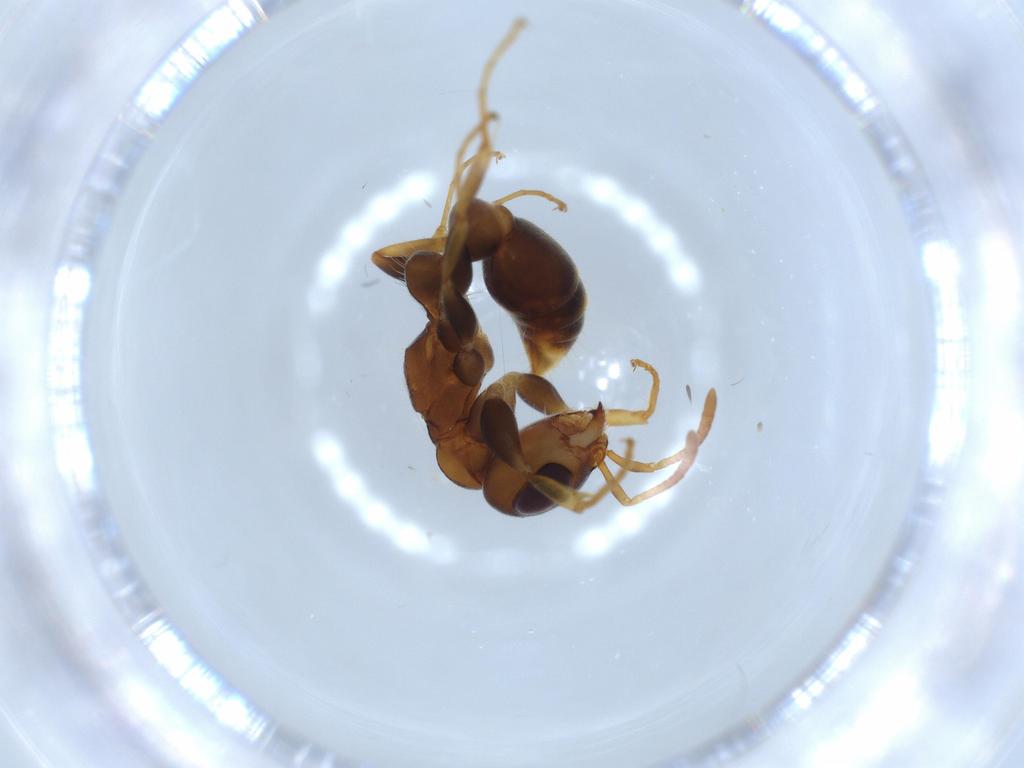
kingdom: Animalia
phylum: Arthropoda
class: Insecta
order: Hymenoptera
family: Formicidae
